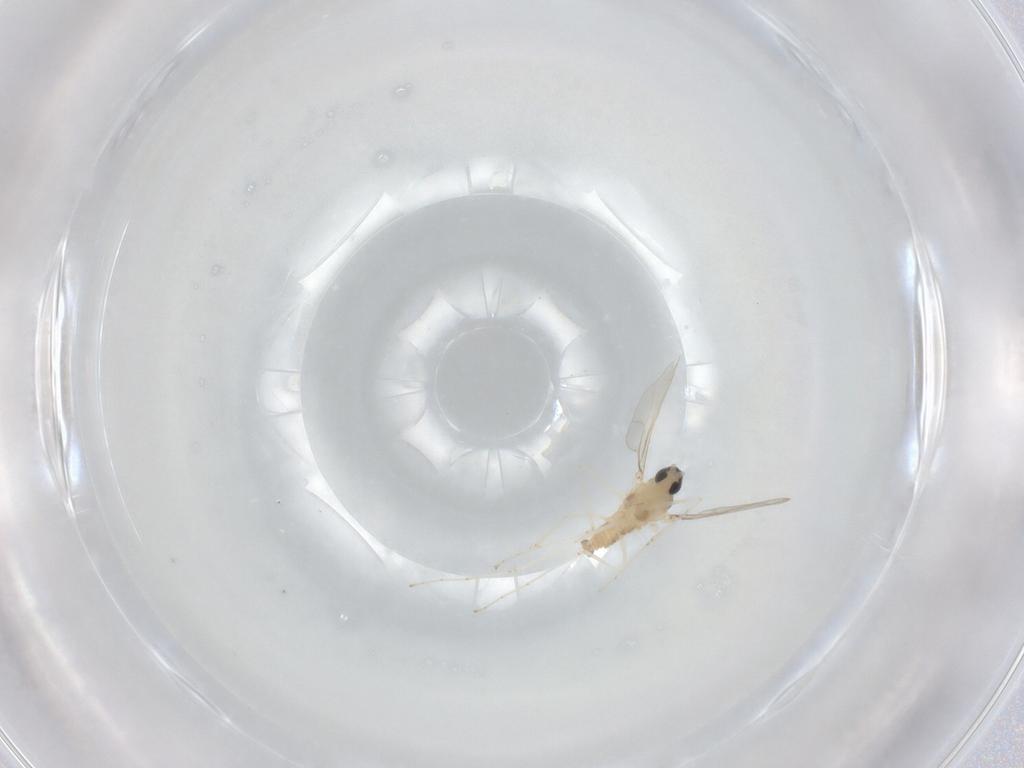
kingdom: Animalia
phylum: Arthropoda
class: Insecta
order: Diptera
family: Cecidomyiidae
